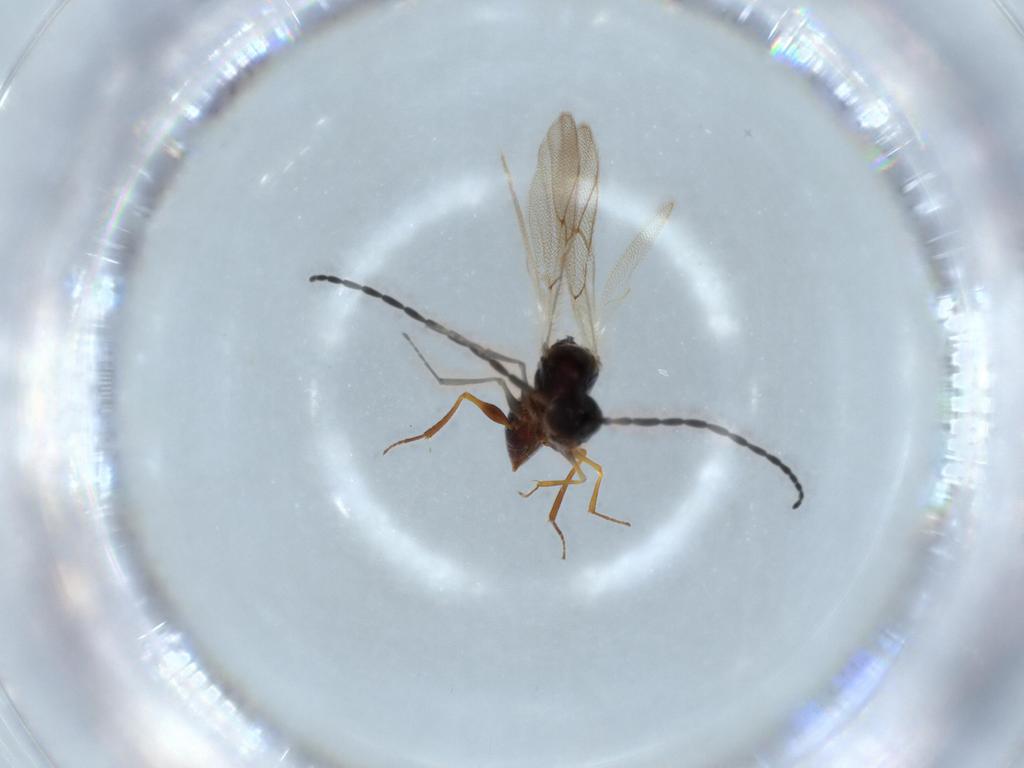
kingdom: Animalia
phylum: Arthropoda
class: Insecta
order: Hymenoptera
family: Figitidae
